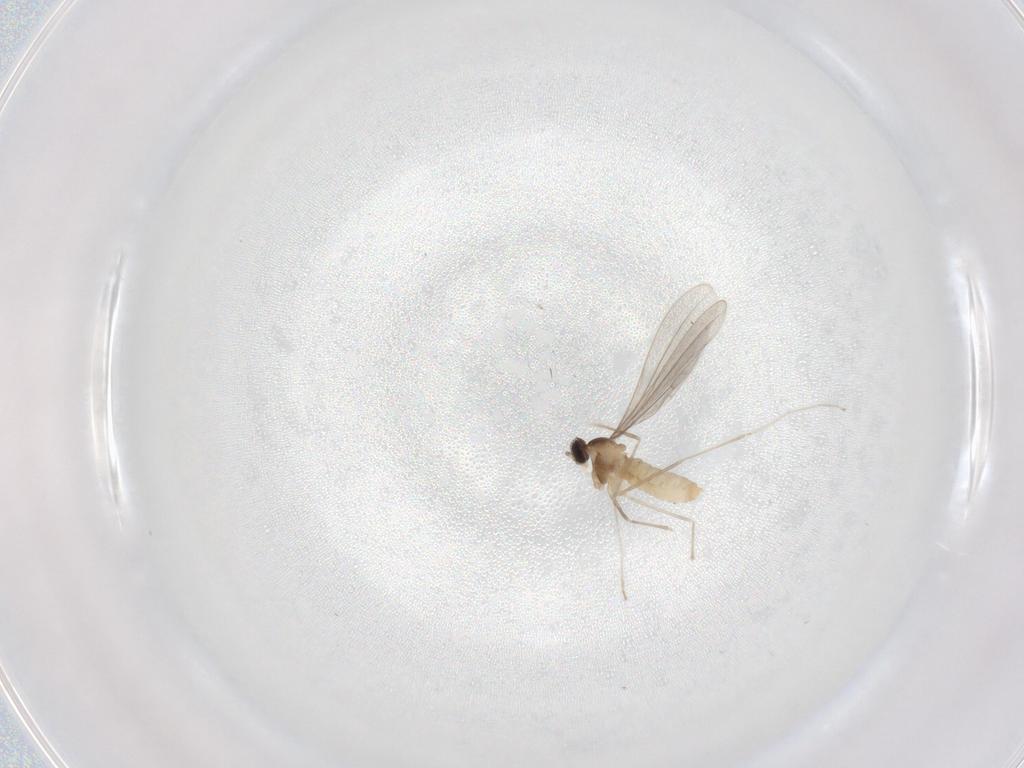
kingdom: Animalia
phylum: Arthropoda
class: Insecta
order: Diptera
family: Cecidomyiidae
